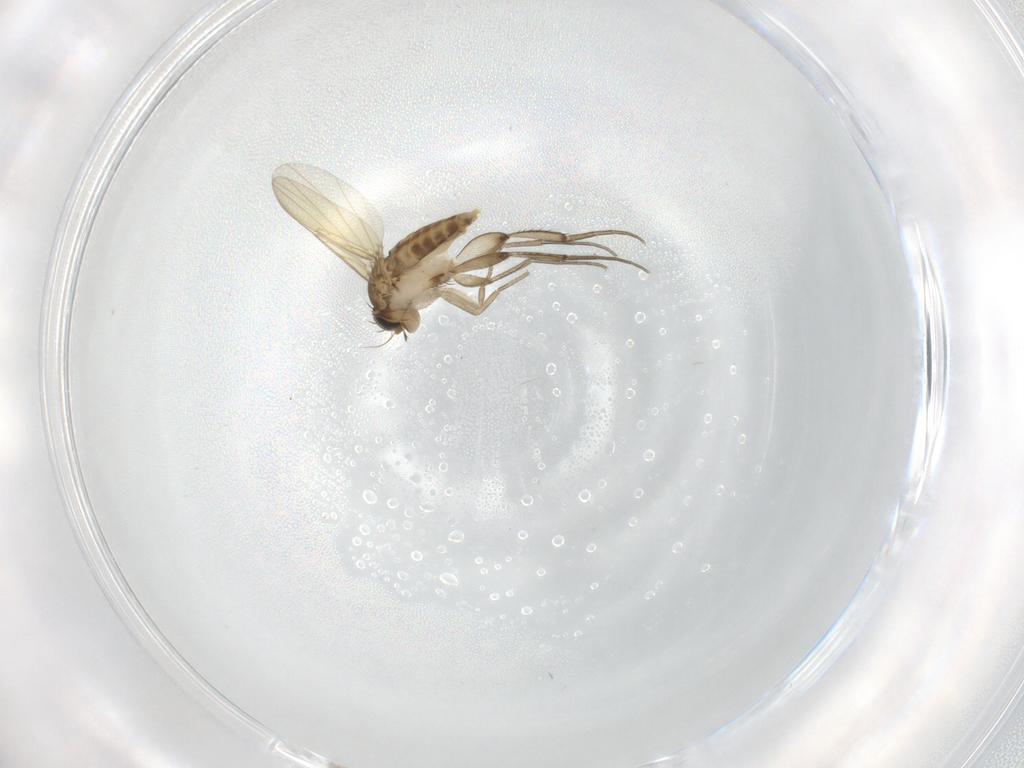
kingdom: Animalia
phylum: Arthropoda
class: Insecta
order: Diptera
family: Phoridae
